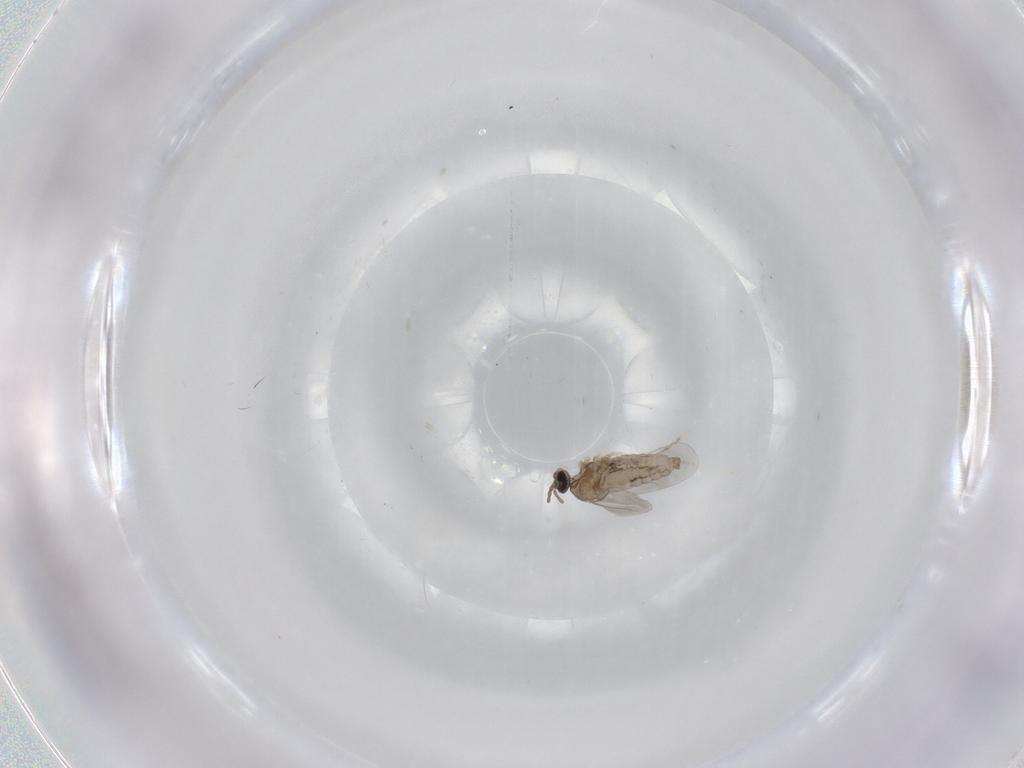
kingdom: Animalia
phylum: Arthropoda
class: Insecta
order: Diptera
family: Cecidomyiidae
